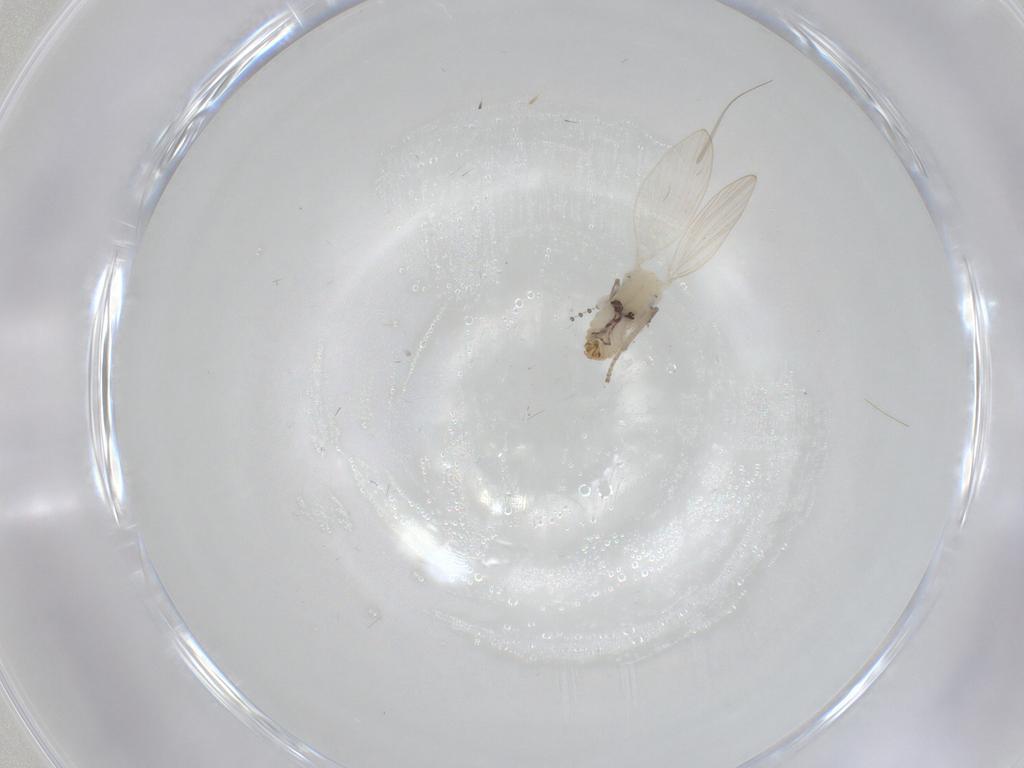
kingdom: Animalia
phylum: Arthropoda
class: Insecta
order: Diptera
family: Psychodidae
